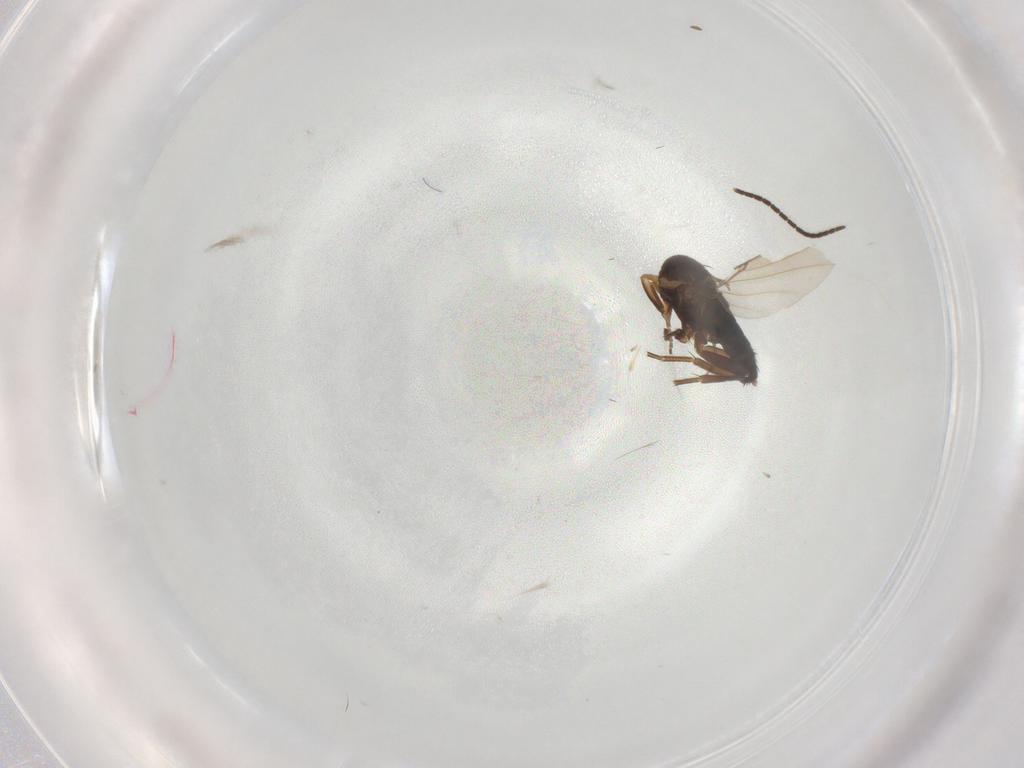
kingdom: Animalia
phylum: Arthropoda
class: Insecta
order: Diptera
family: Phoridae
